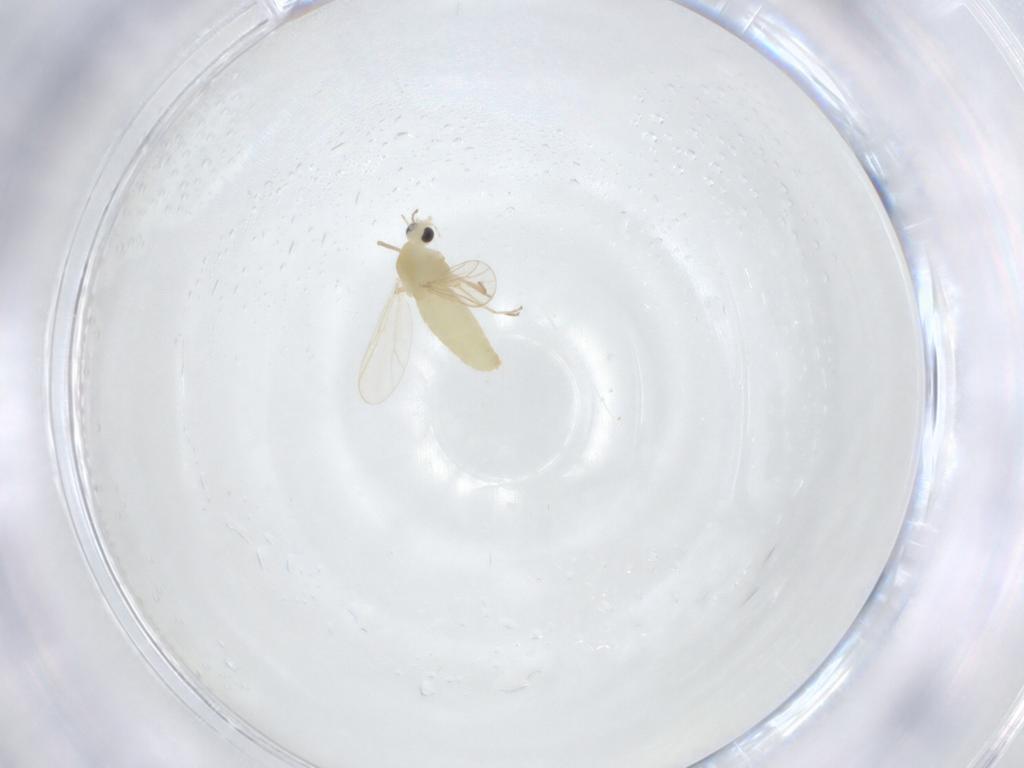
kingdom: Animalia
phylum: Arthropoda
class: Insecta
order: Diptera
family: Chironomidae
